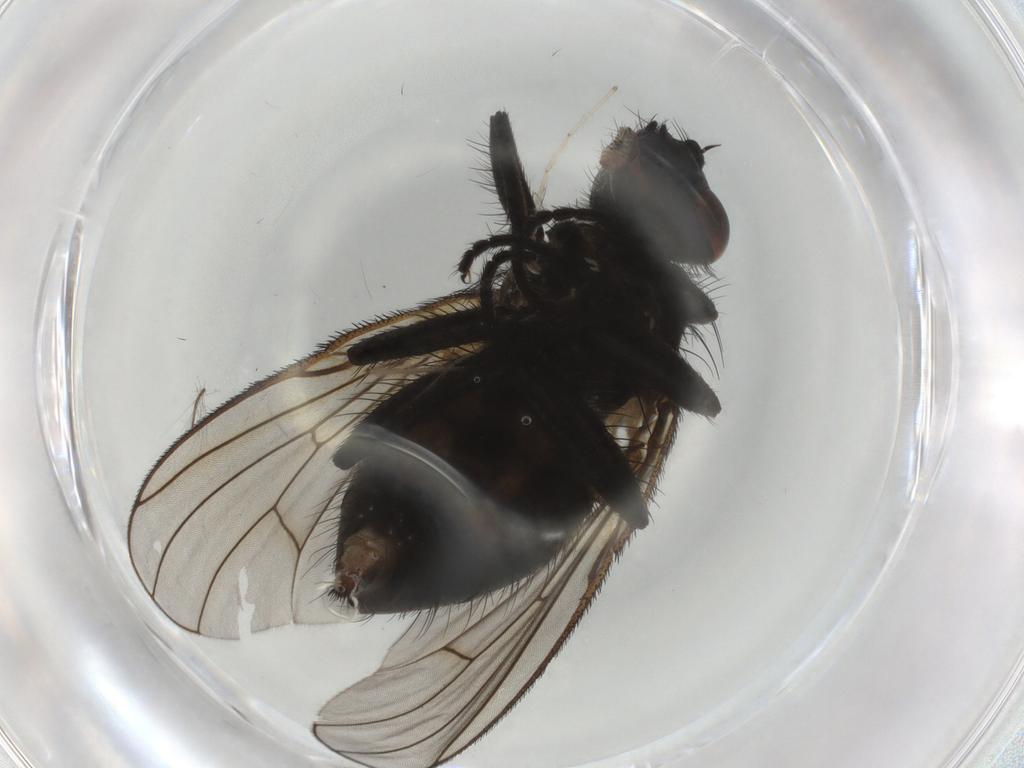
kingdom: Animalia
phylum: Arthropoda
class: Insecta
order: Diptera
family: Muscidae
